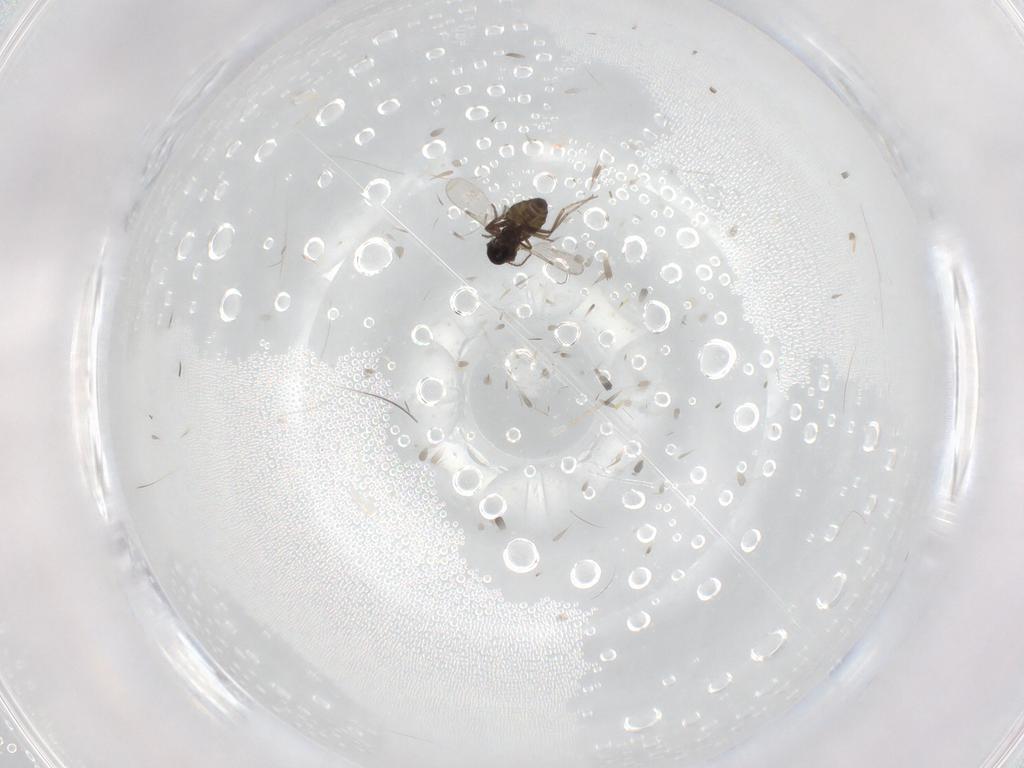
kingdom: Animalia
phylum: Arthropoda
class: Insecta
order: Diptera
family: Ceratopogonidae
